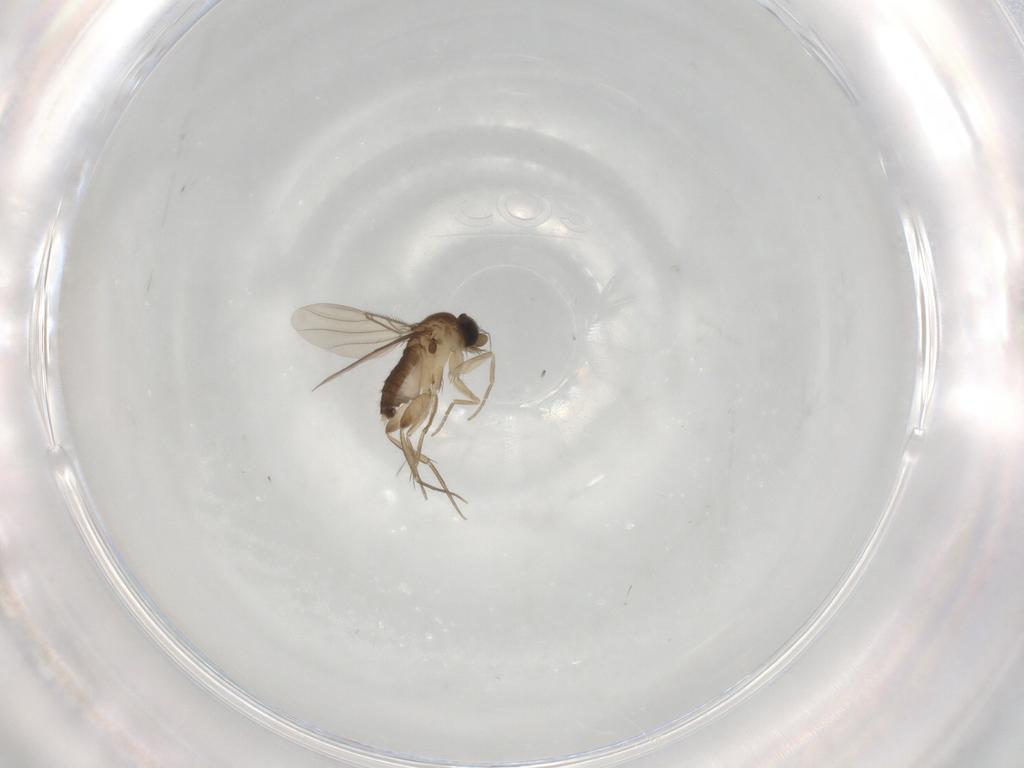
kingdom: Animalia
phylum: Arthropoda
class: Insecta
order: Diptera
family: Phoridae
